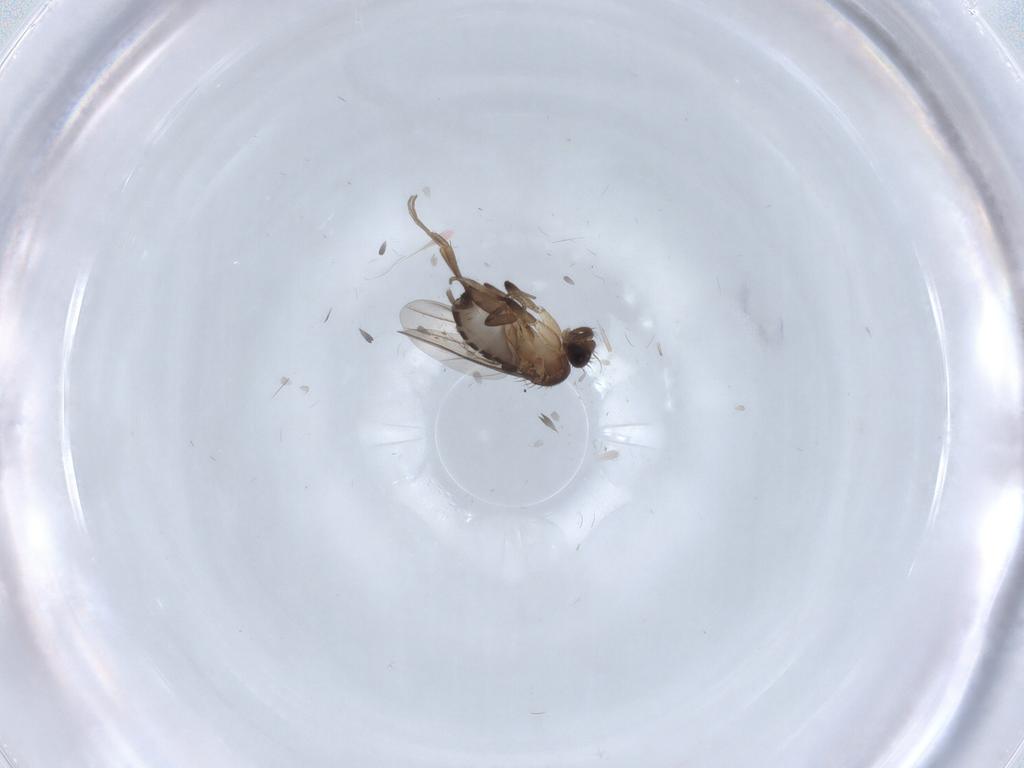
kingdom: Animalia
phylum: Arthropoda
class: Insecta
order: Diptera
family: Phoridae
